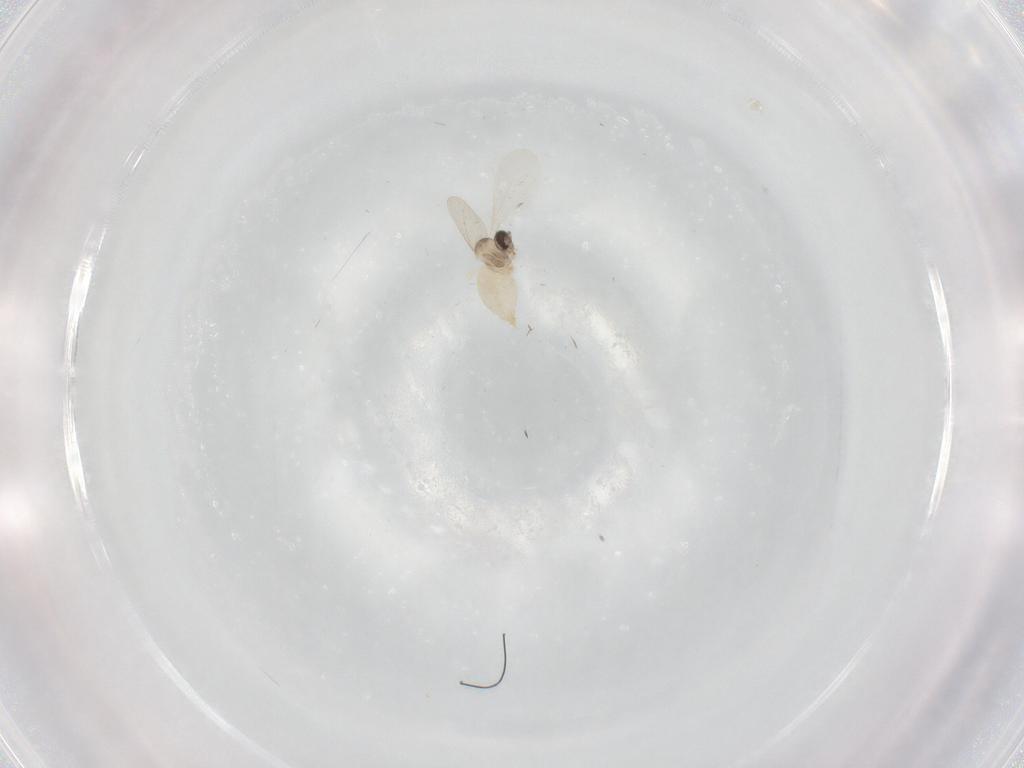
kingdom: Animalia
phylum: Arthropoda
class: Insecta
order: Diptera
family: Cecidomyiidae
